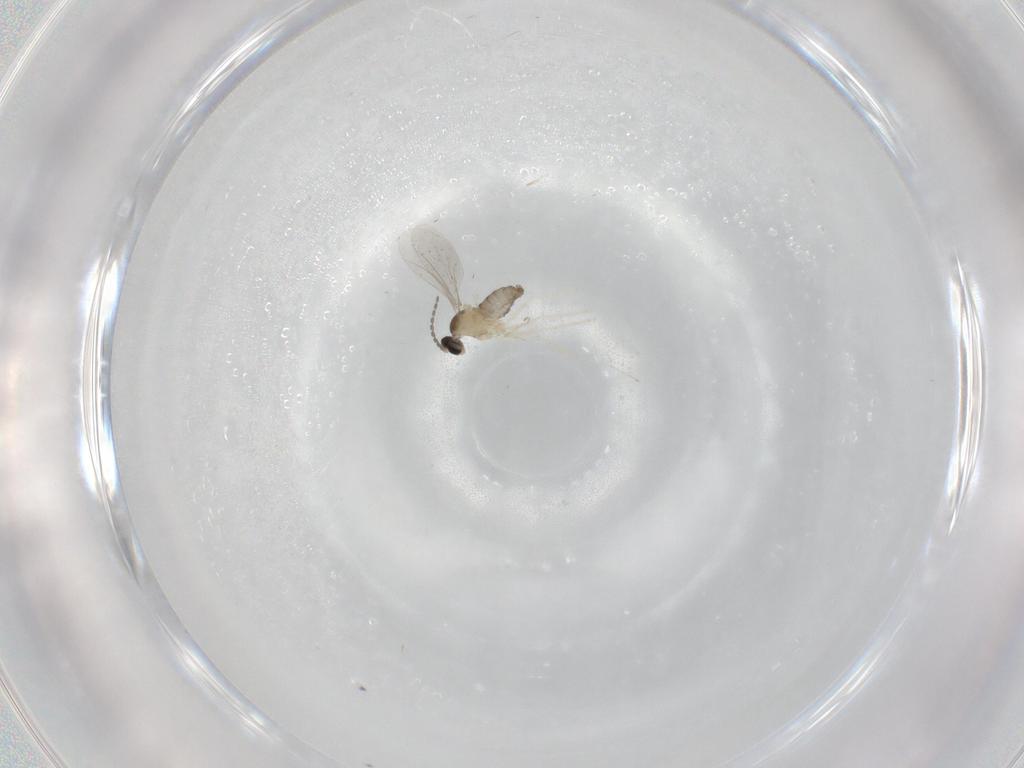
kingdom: Animalia
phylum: Arthropoda
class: Insecta
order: Diptera
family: Cecidomyiidae
